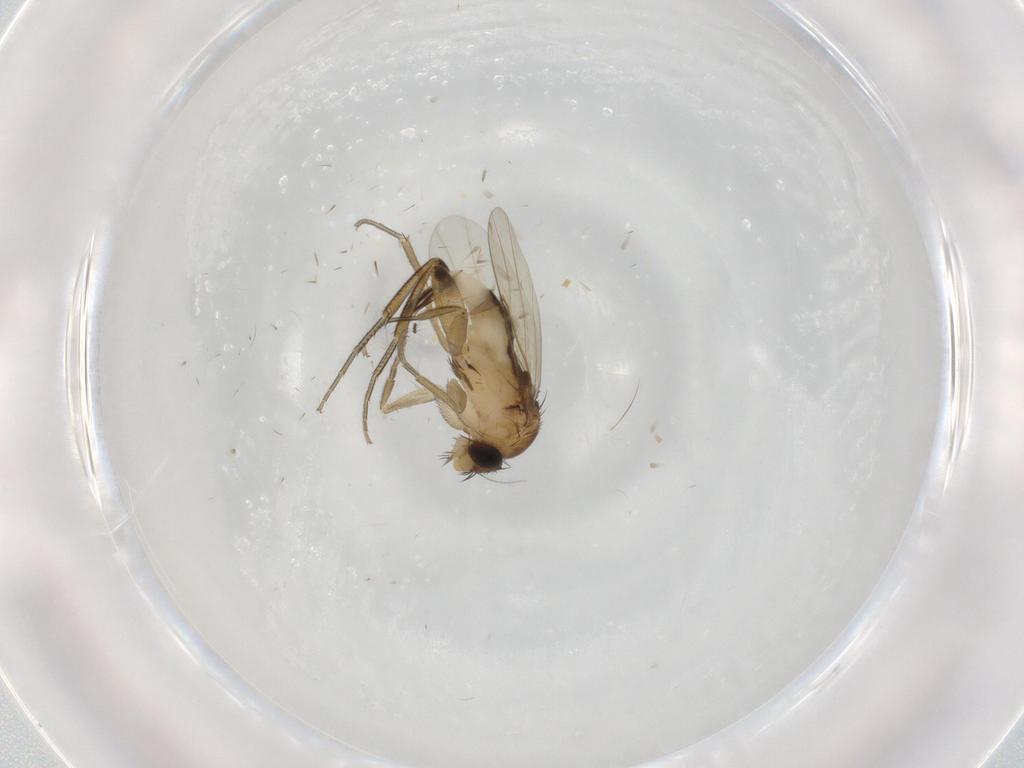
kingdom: Animalia
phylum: Arthropoda
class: Insecta
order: Diptera
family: Phoridae
